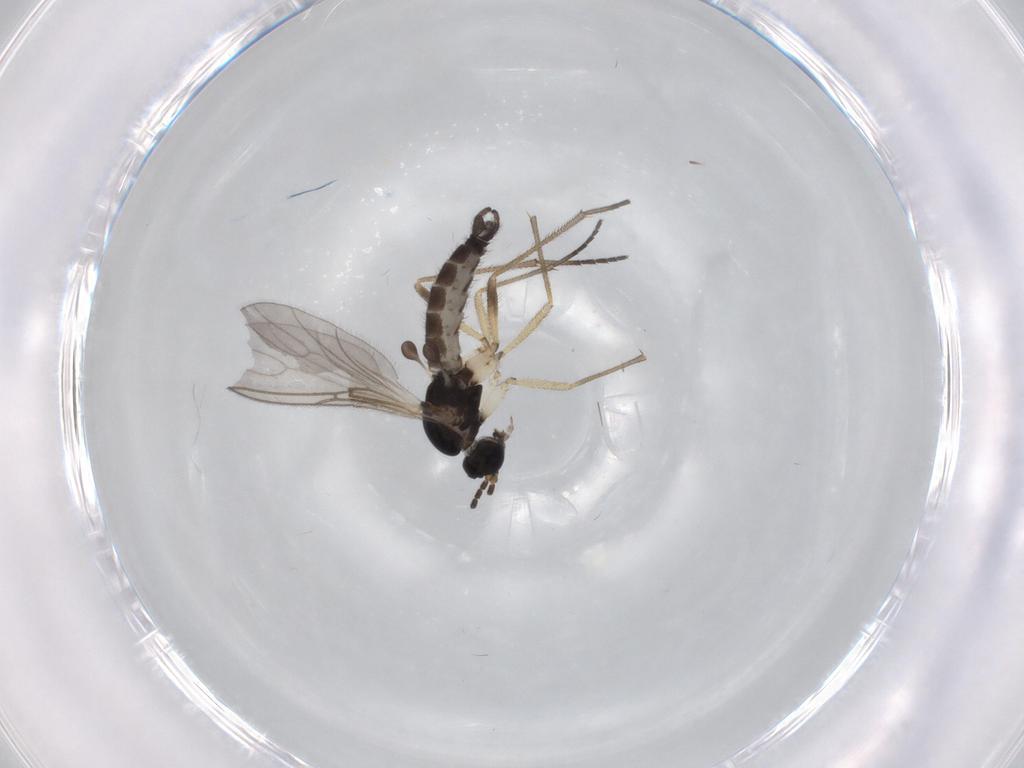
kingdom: Animalia
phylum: Arthropoda
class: Insecta
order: Diptera
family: Sciaridae
